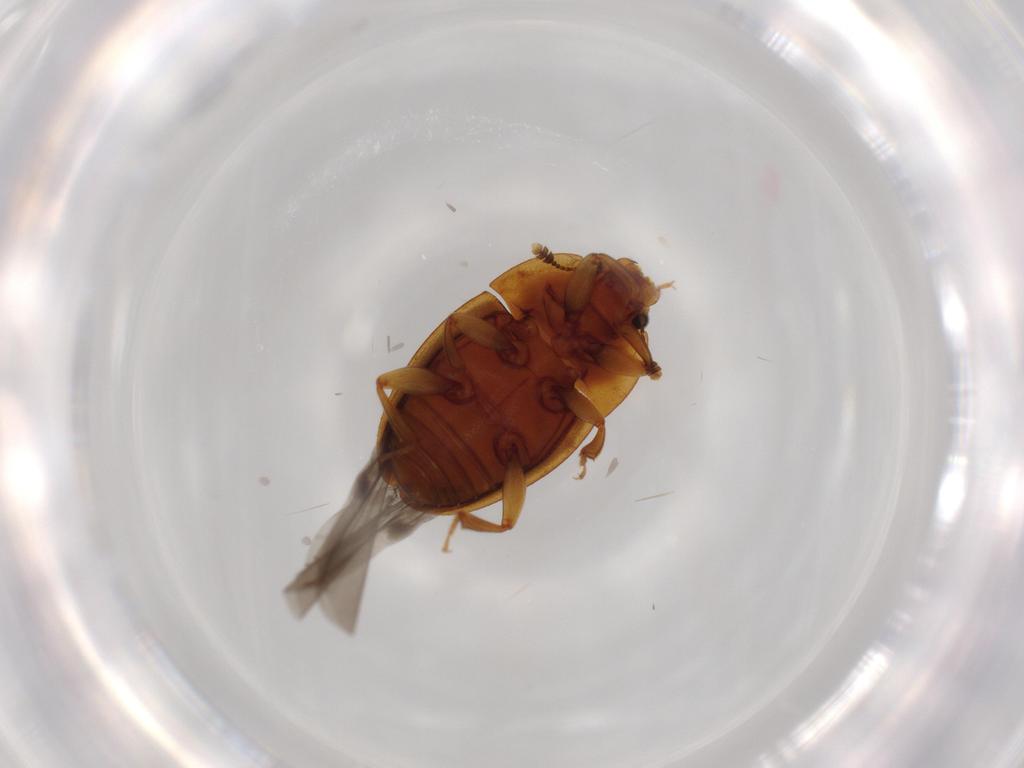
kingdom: Animalia
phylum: Arthropoda
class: Insecta
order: Coleoptera
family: Nitidulidae
